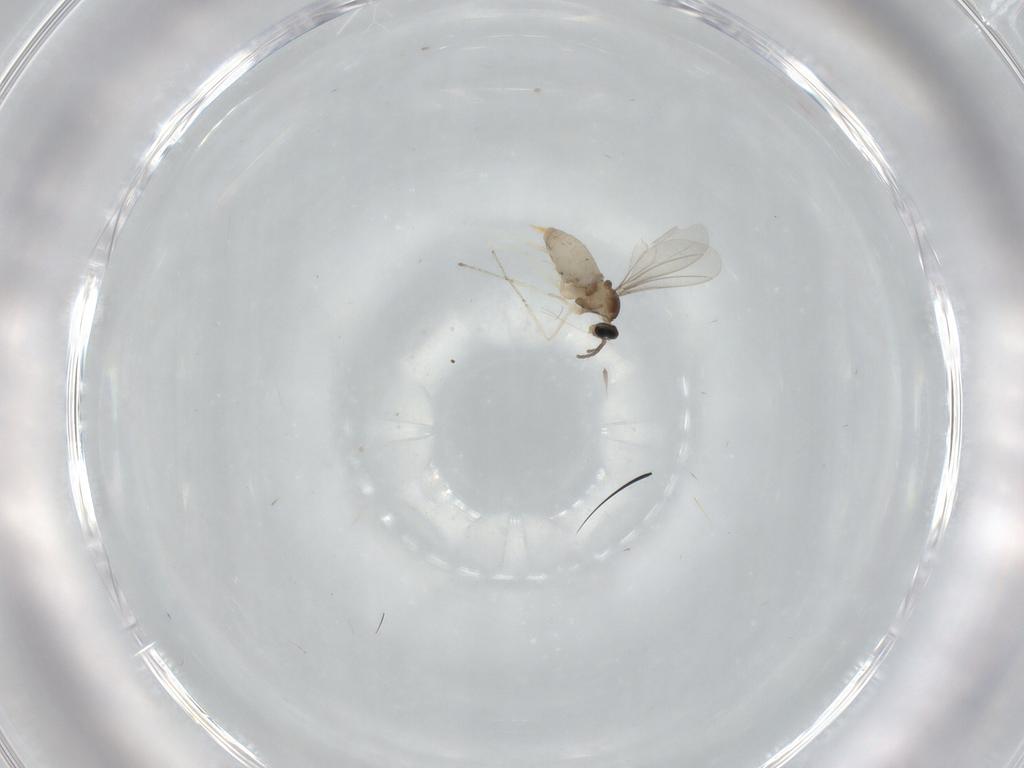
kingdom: Animalia
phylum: Arthropoda
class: Insecta
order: Diptera
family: Cecidomyiidae
